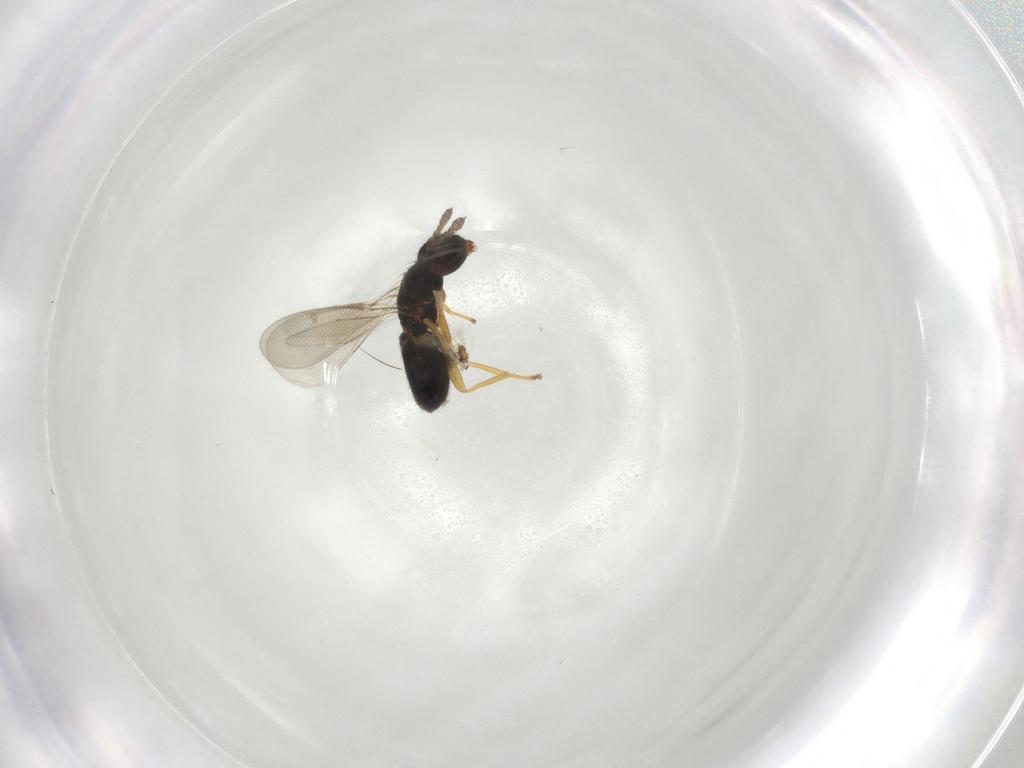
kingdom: Animalia
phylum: Arthropoda
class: Insecta
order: Hymenoptera
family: Eulophidae
